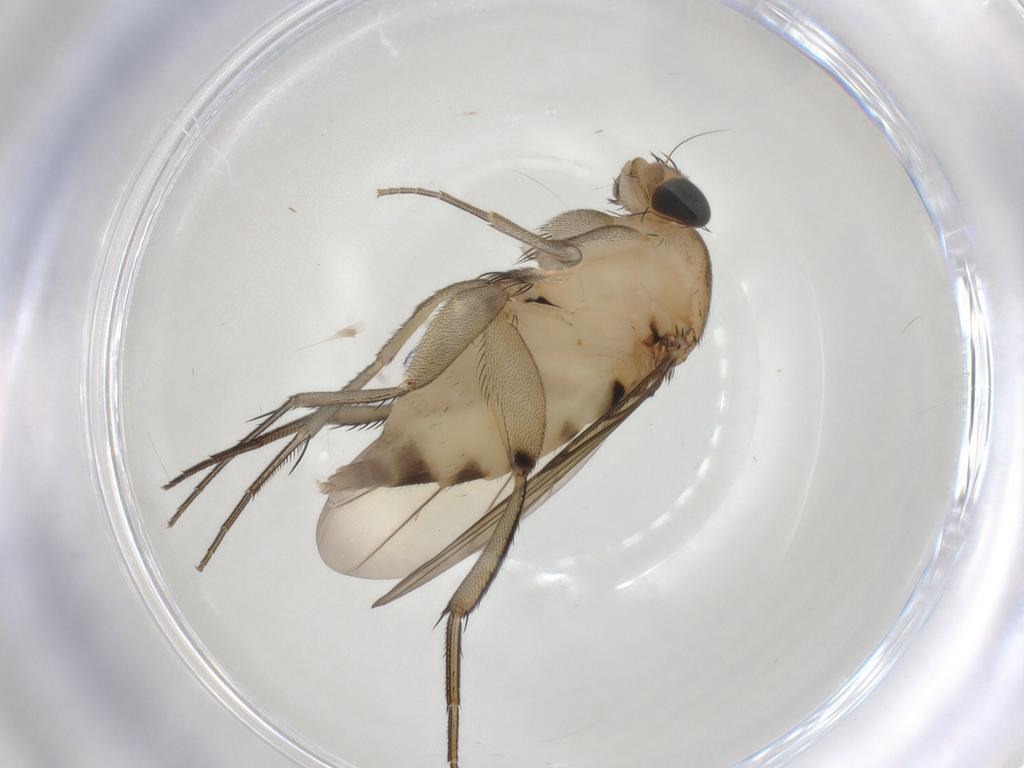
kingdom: Animalia
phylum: Arthropoda
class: Insecta
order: Diptera
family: Phoridae
